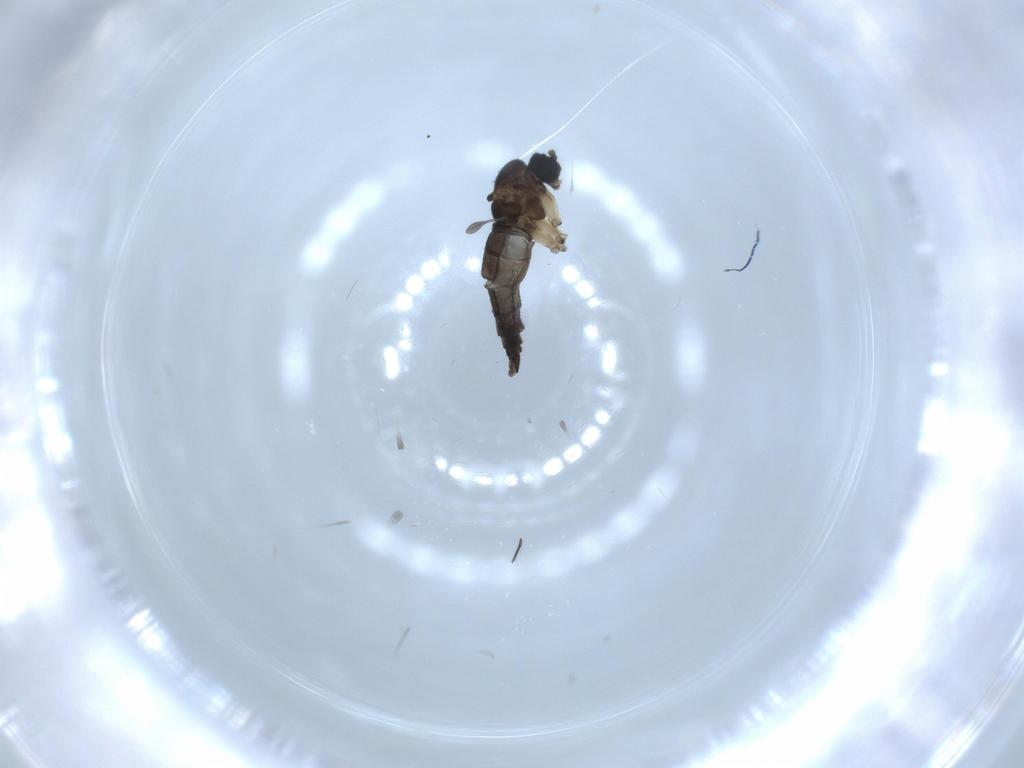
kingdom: Animalia
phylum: Arthropoda
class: Insecta
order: Diptera
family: Sciaridae
